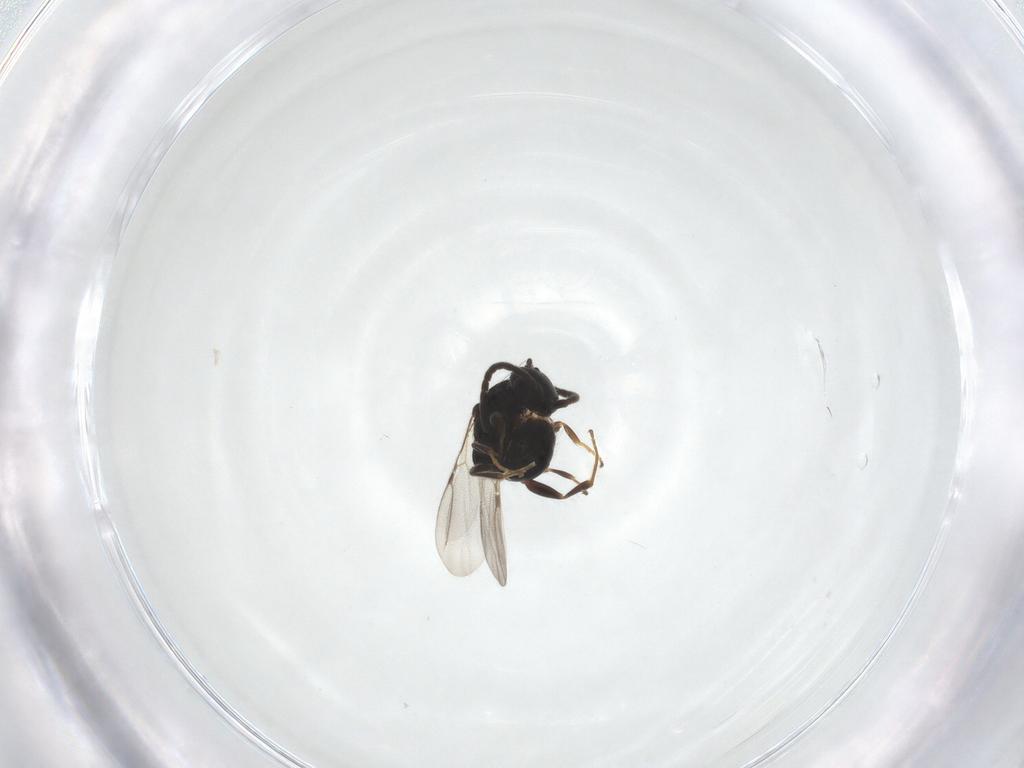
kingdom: Animalia
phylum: Arthropoda
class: Insecta
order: Hymenoptera
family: Bethylidae
